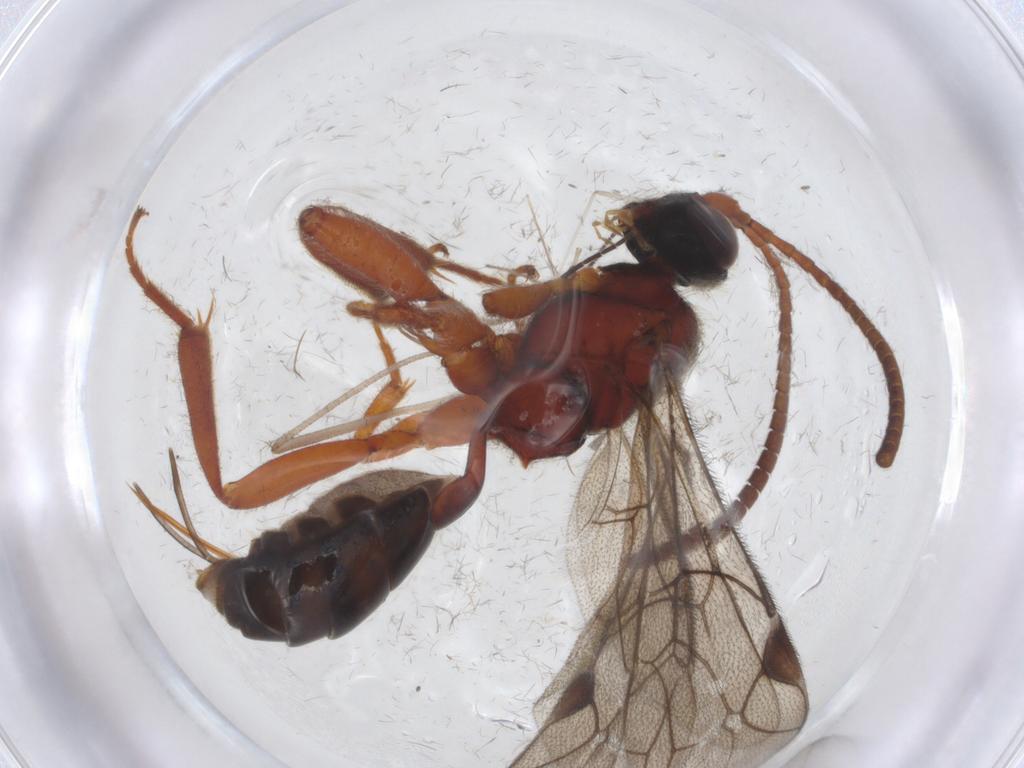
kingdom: Animalia
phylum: Arthropoda
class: Insecta
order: Hymenoptera
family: Ichneumonidae
